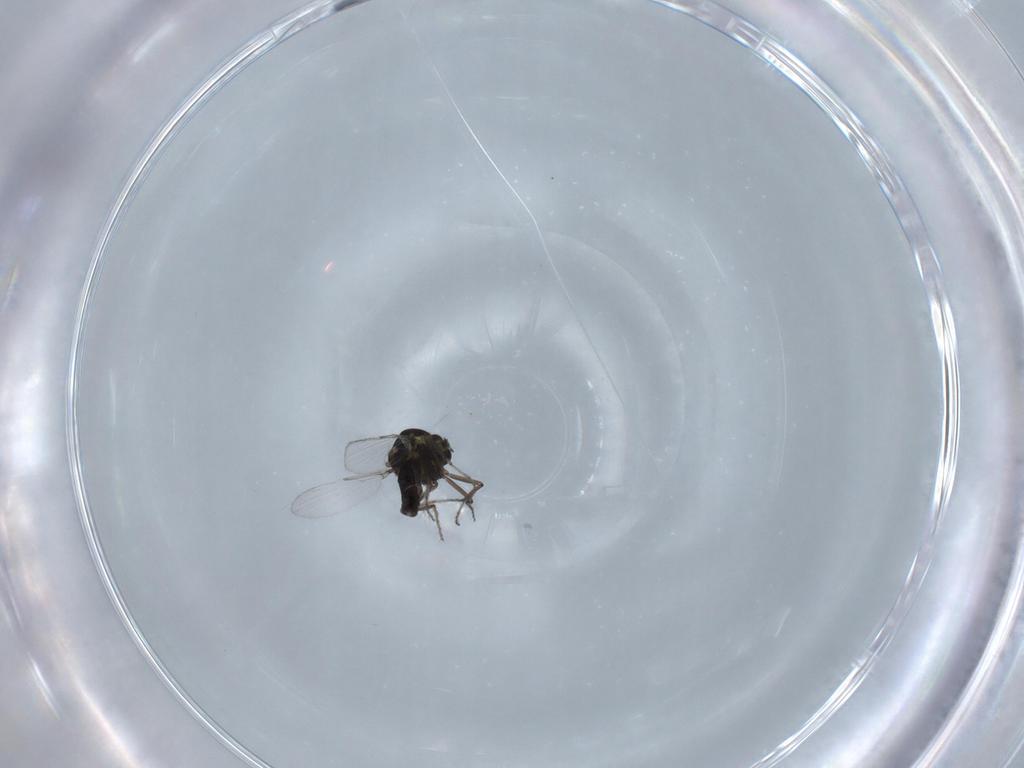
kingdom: Animalia
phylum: Arthropoda
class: Insecta
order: Diptera
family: Ceratopogonidae
